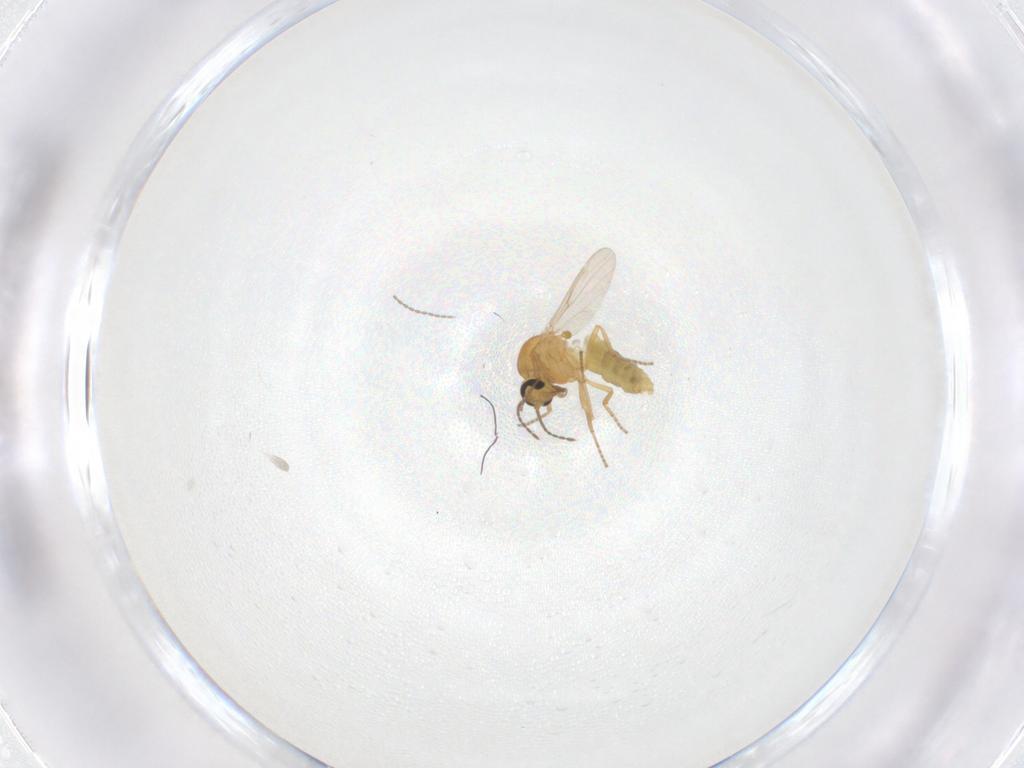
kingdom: Animalia
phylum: Arthropoda
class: Insecta
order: Diptera
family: Ceratopogonidae
